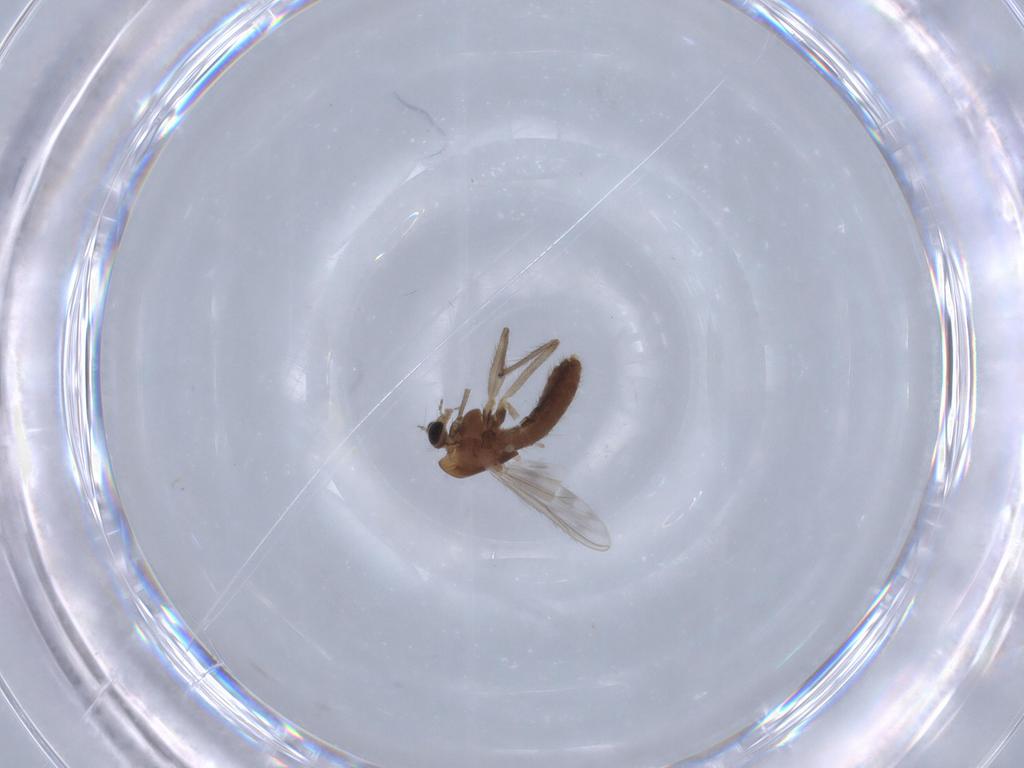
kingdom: Animalia
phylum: Arthropoda
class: Insecta
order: Diptera
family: Chironomidae
